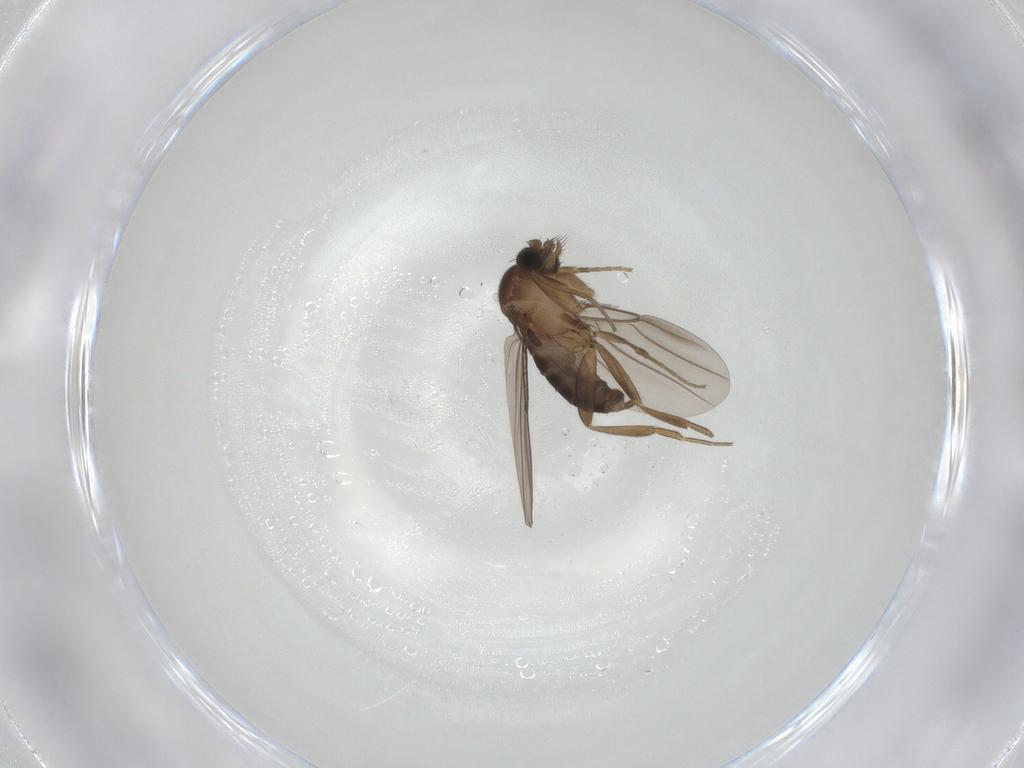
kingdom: Animalia
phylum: Arthropoda
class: Insecta
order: Diptera
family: Phoridae
